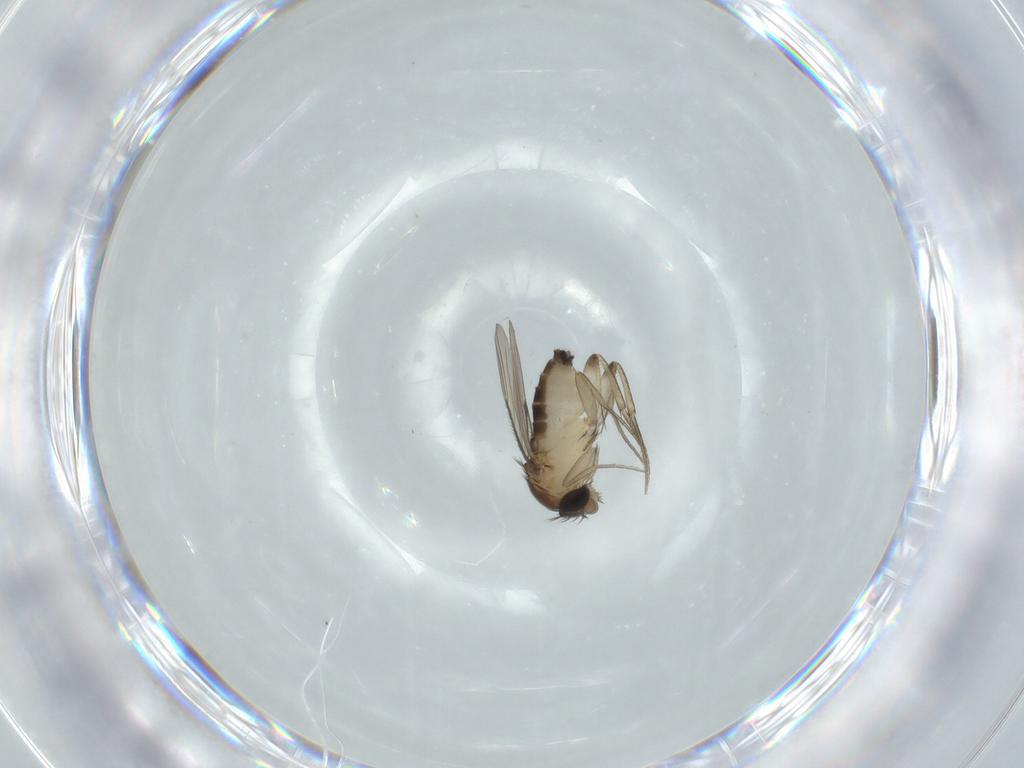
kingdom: Animalia
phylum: Arthropoda
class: Insecta
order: Diptera
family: Phoridae
